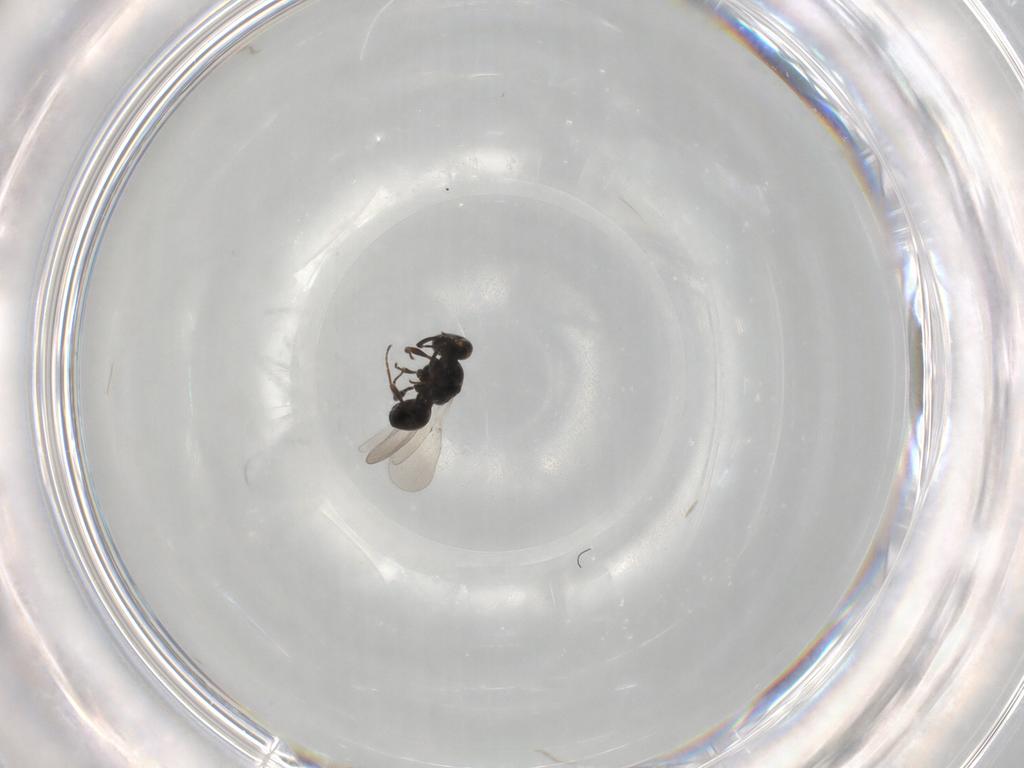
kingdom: Animalia
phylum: Arthropoda
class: Insecta
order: Hymenoptera
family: Platygastridae
